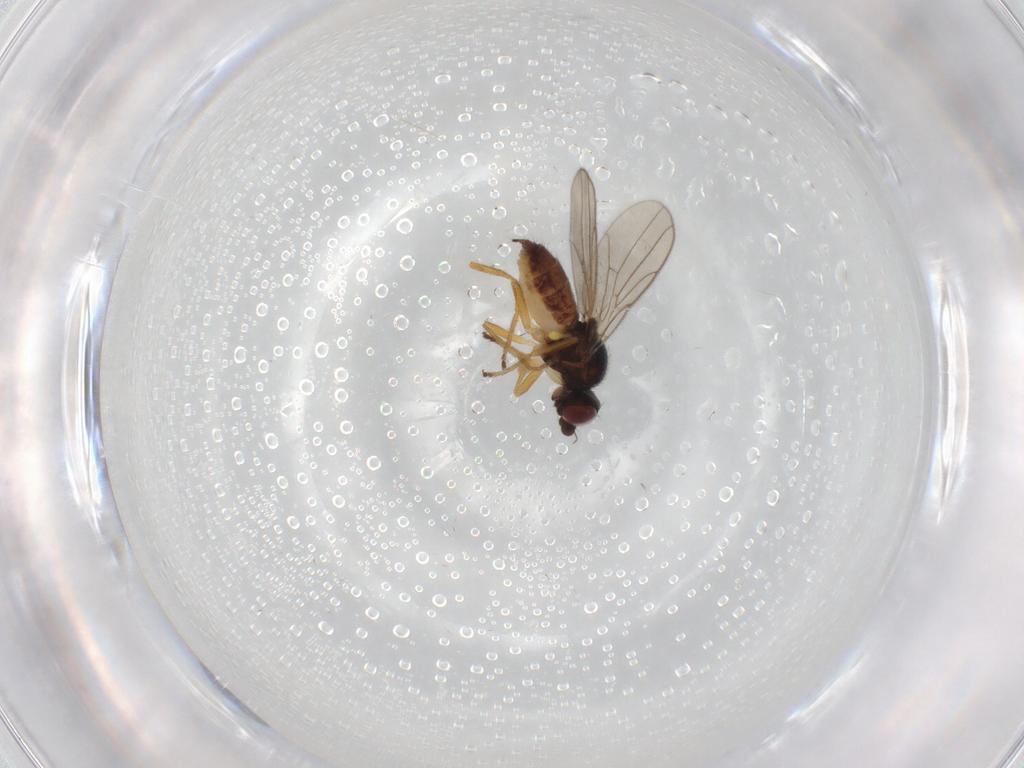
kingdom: Animalia
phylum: Arthropoda
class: Insecta
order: Diptera
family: Chloropidae
